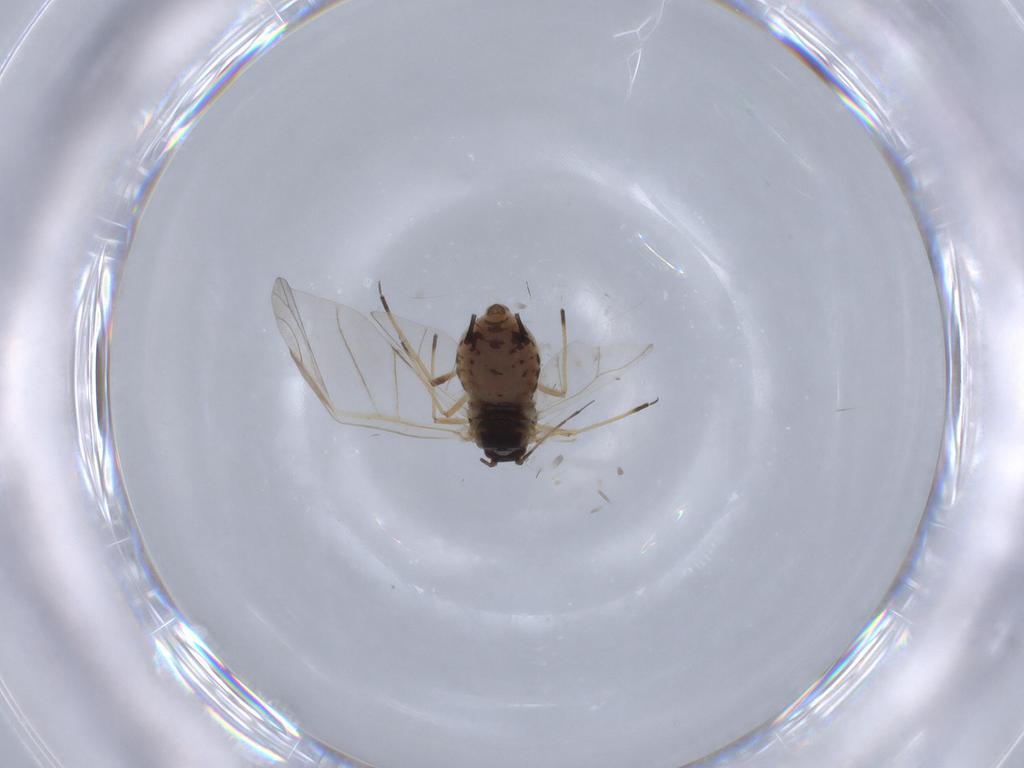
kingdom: Animalia
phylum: Arthropoda
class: Insecta
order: Hemiptera
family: Aphididae
